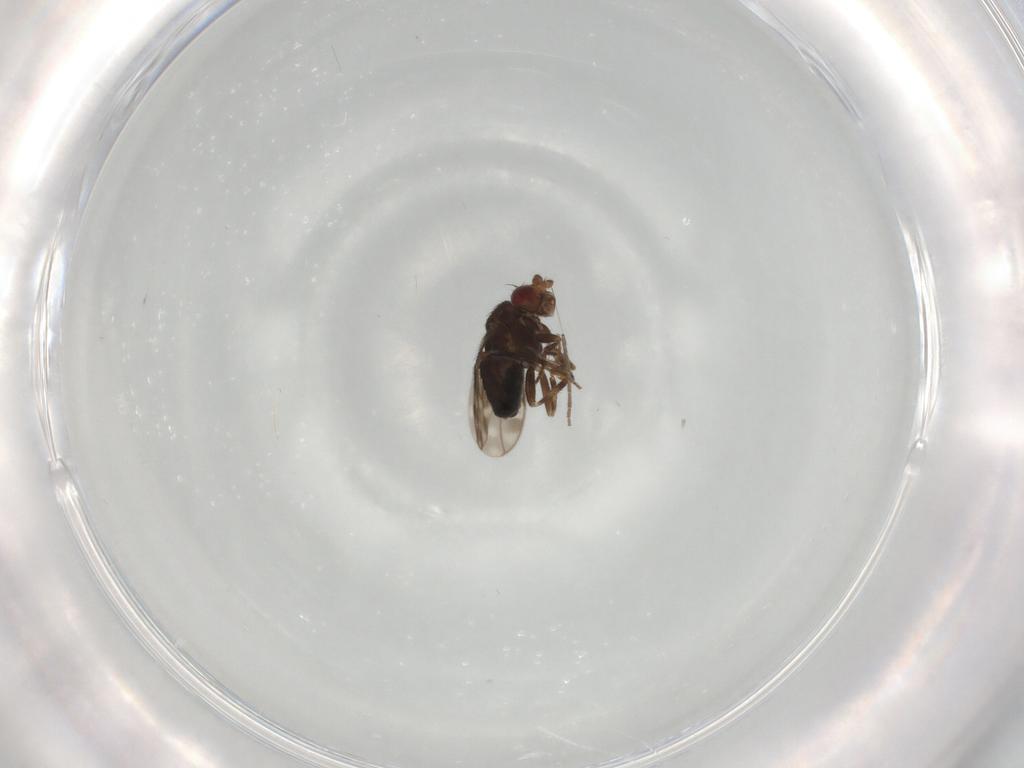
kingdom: Animalia
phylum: Arthropoda
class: Insecta
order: Diptera
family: Sphaeroceridae
